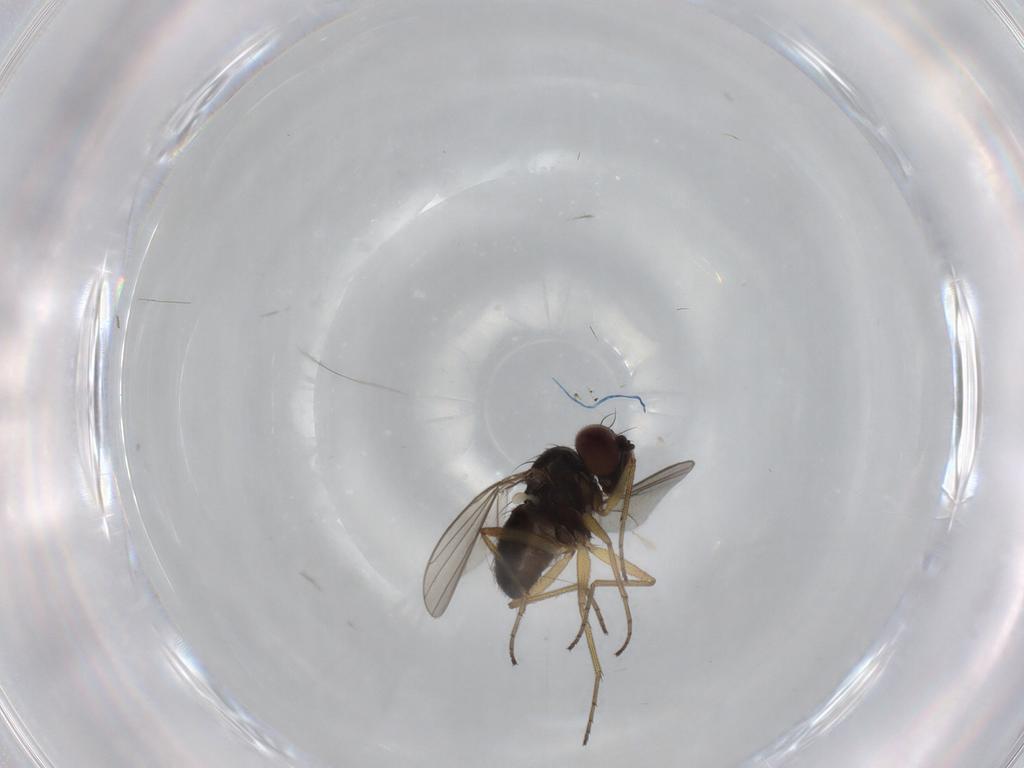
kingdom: Animalia
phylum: Arthropoda
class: Insecta
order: Diptera
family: Dolichopodidae
